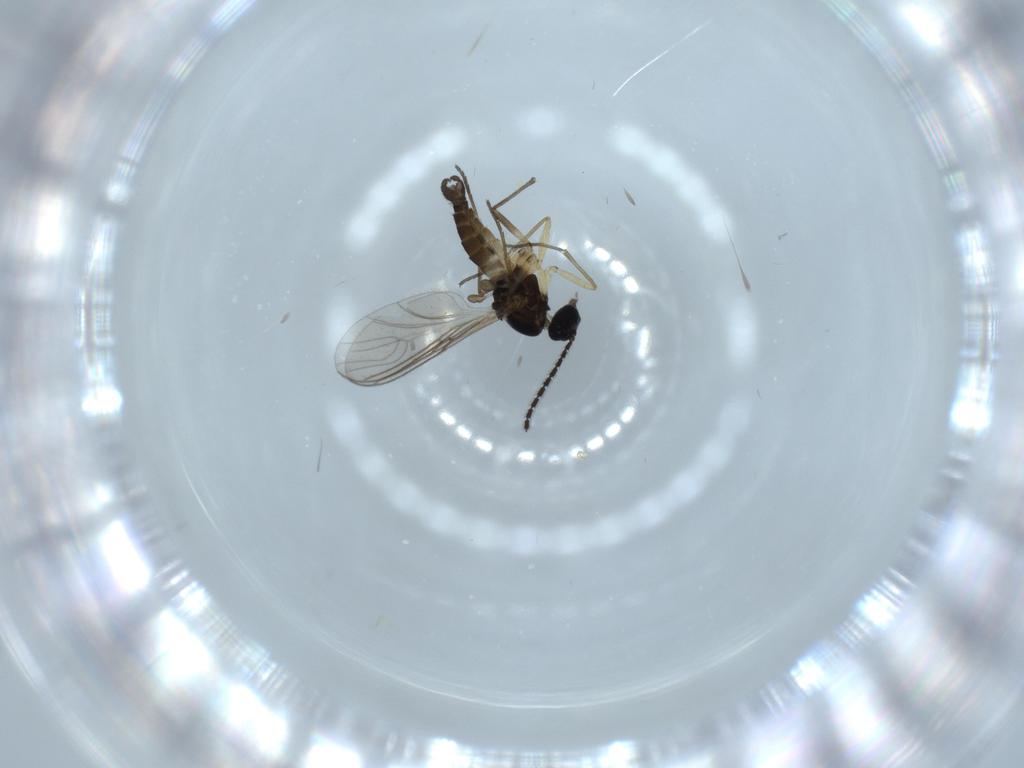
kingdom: Animalia
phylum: Arthropoda
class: Insecta
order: Diptera
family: Sciaridae
